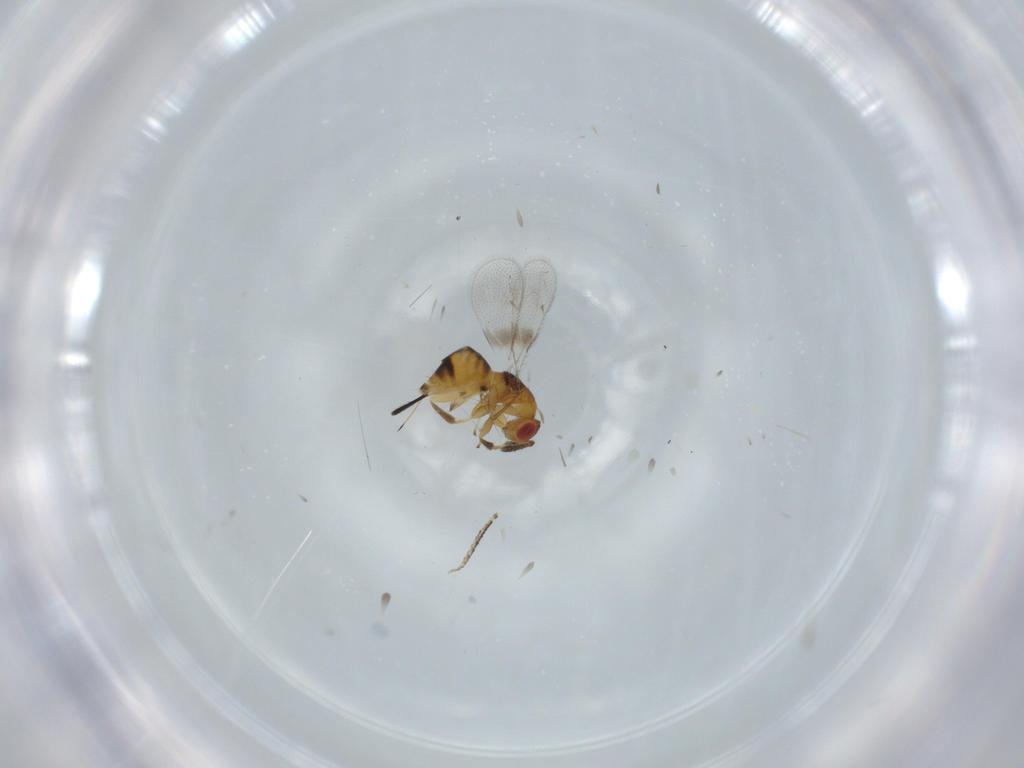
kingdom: Animalia
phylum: Arthropoda
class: Insecta
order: Hymenoptera
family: Torymidae
